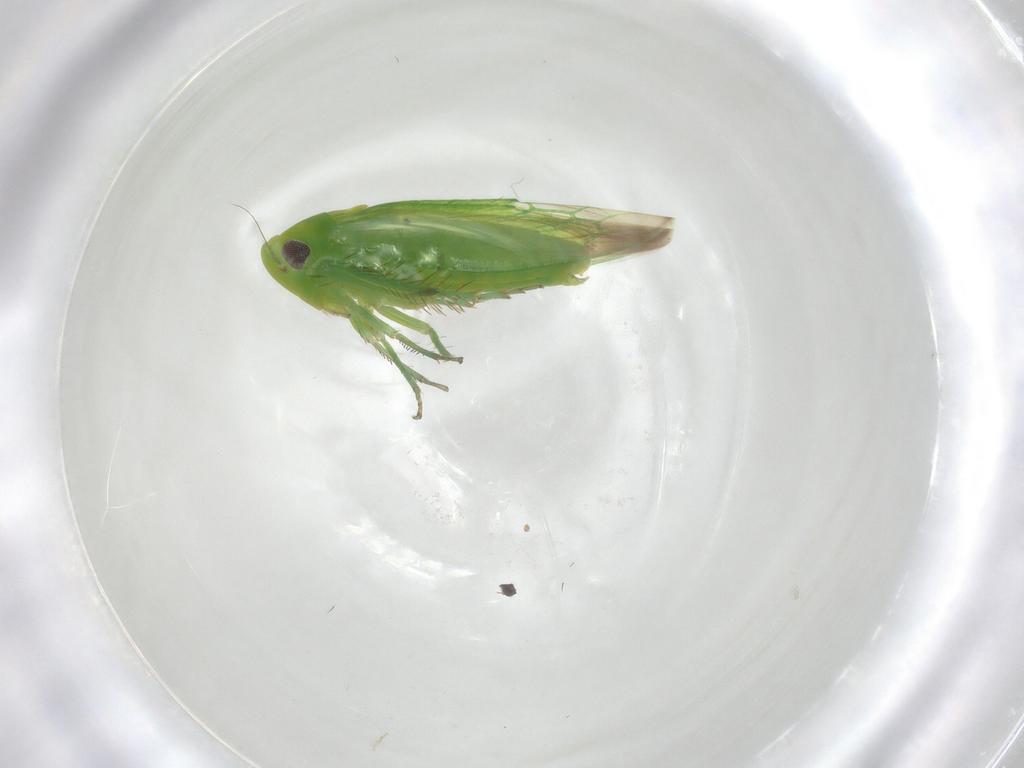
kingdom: Animalia
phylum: Arthropoda
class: Insecta
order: Hemiptera
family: Cicadellidae
